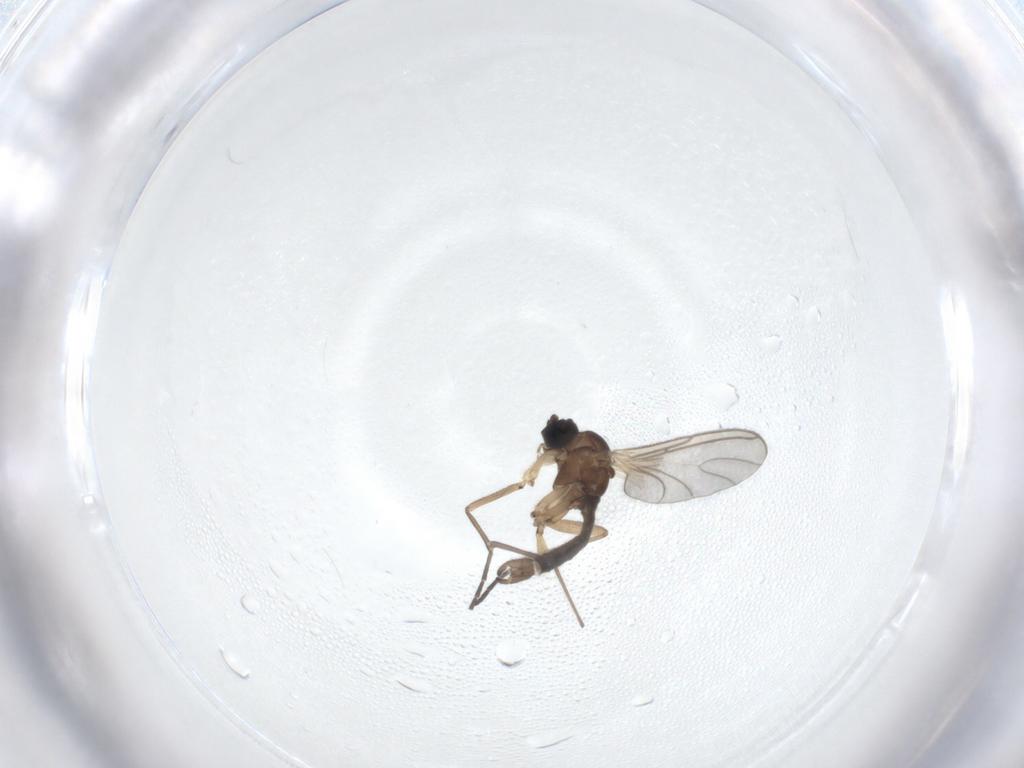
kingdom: Animalia
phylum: Arthropoda
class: Insecta
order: Diptera
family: Sciaridae
